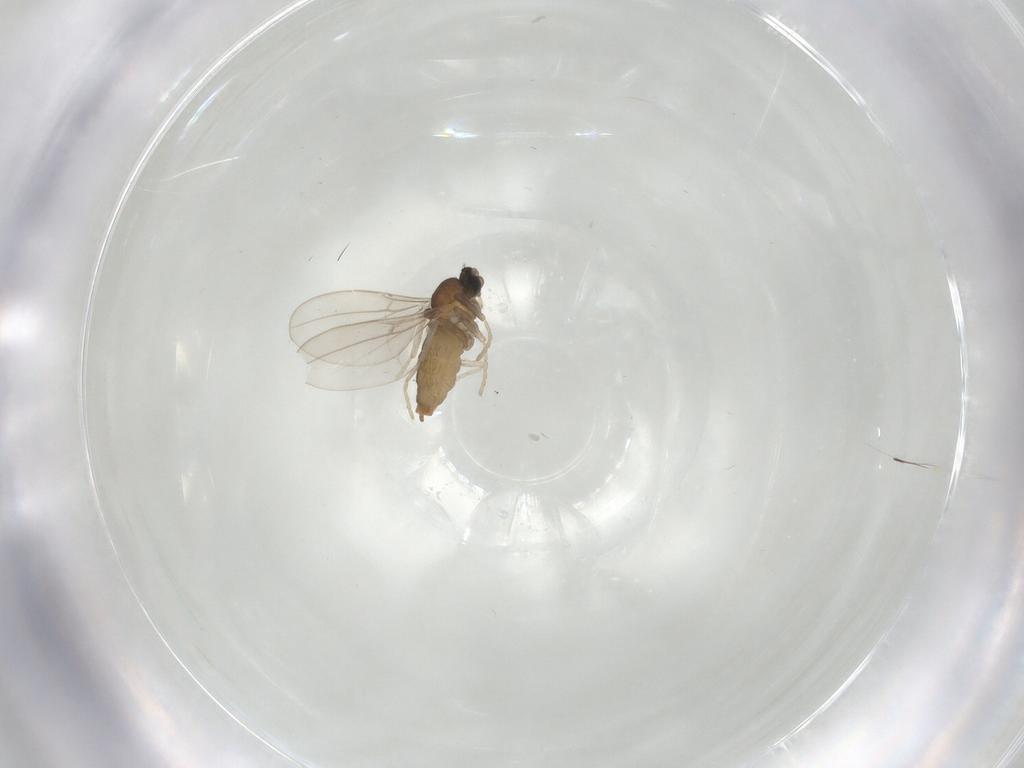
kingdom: Animalia
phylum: Arthropoda
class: Insecta
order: Diptera
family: Cecidomyiidae
